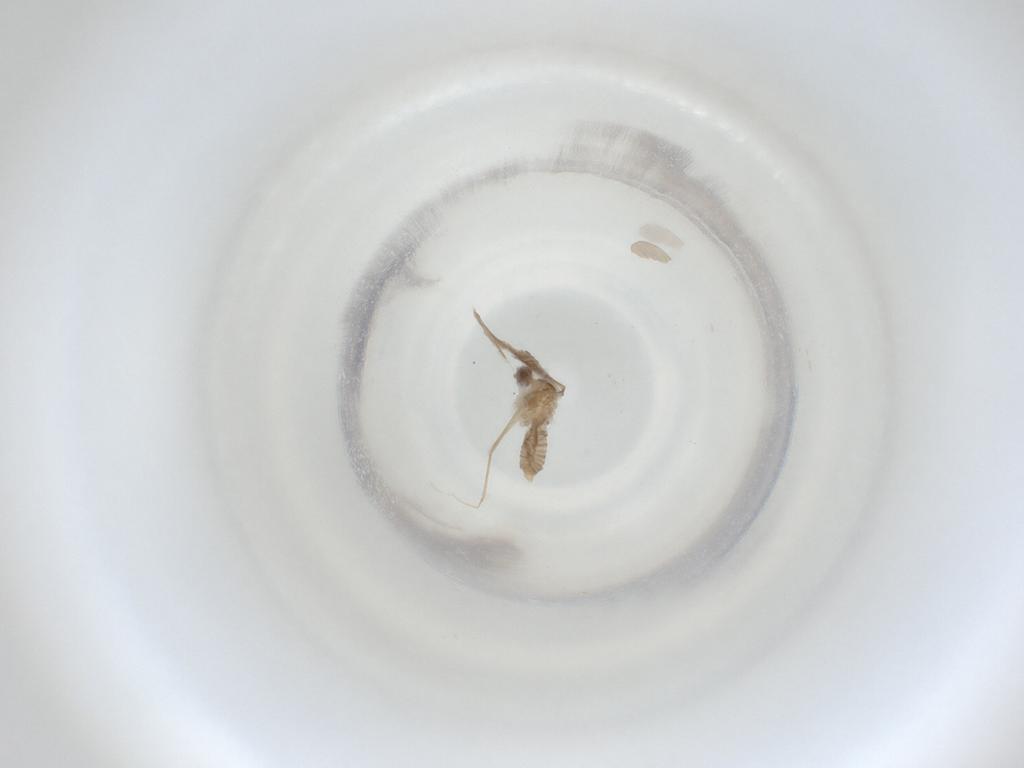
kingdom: Animalia
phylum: Arthropoda
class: Insecta
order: Diptera
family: Cecidomyiidae
